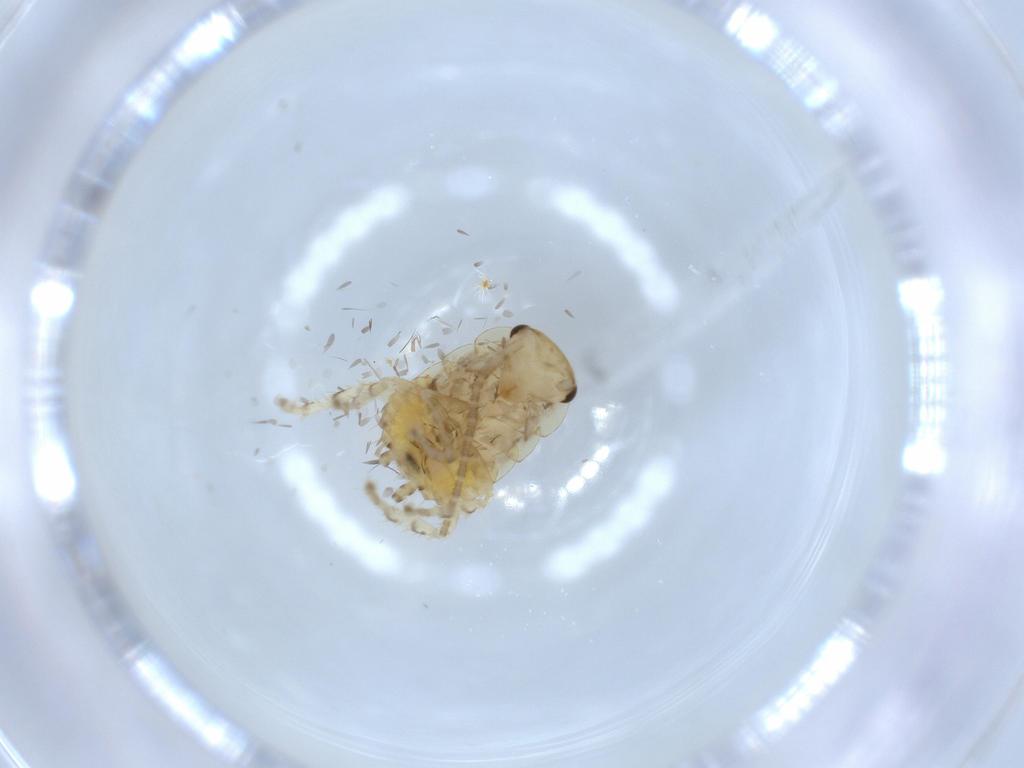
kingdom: Animalia
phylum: Arthropoda
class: Insecta
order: Blattodea
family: Ectobiidae
